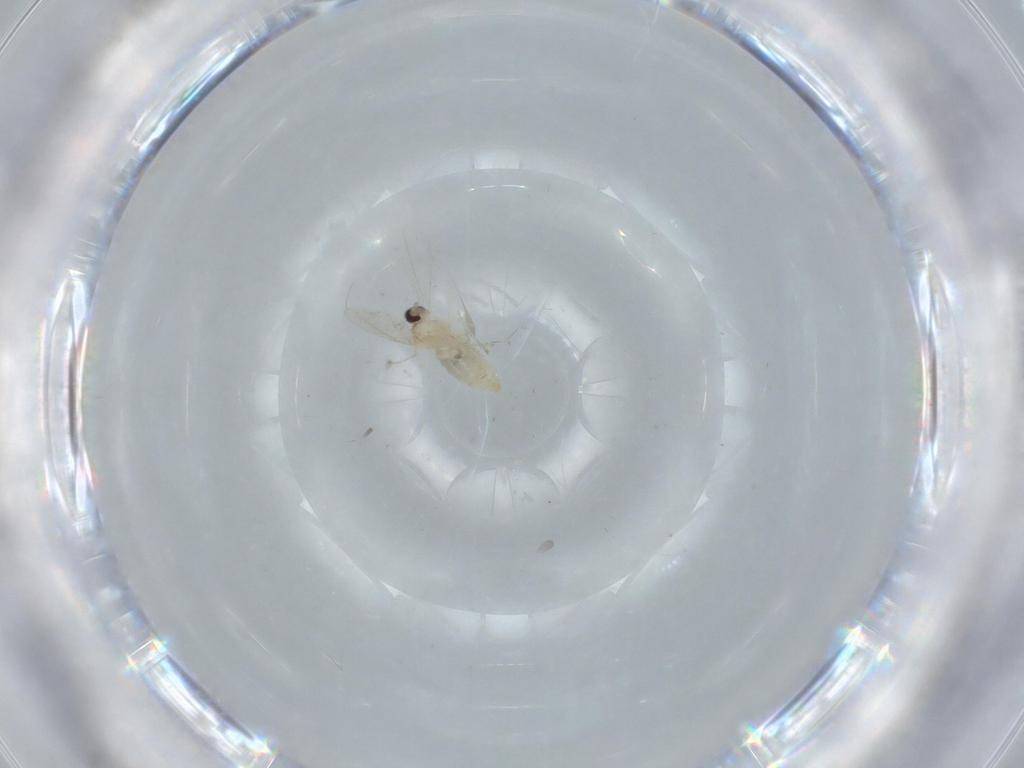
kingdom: Animalia
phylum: Arthropoda
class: Insecta
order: Diptera
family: Cecidomyiidae
